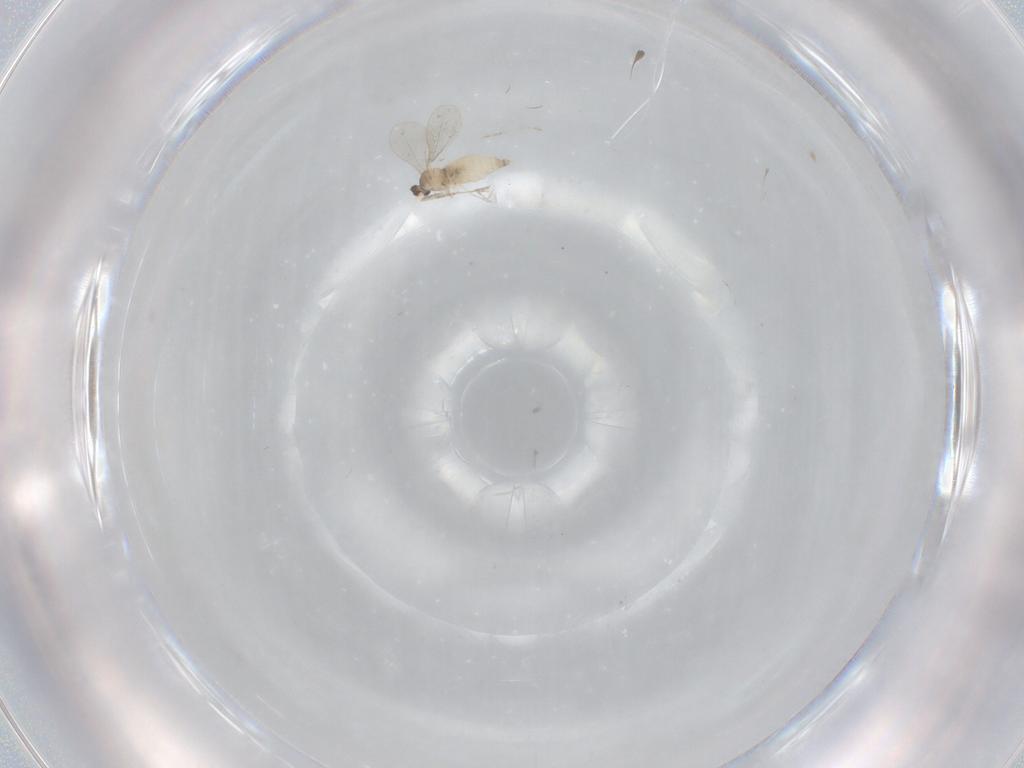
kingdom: Animalia
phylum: Arthropoda
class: Insecta
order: Diptera
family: Cecidomyiidae
